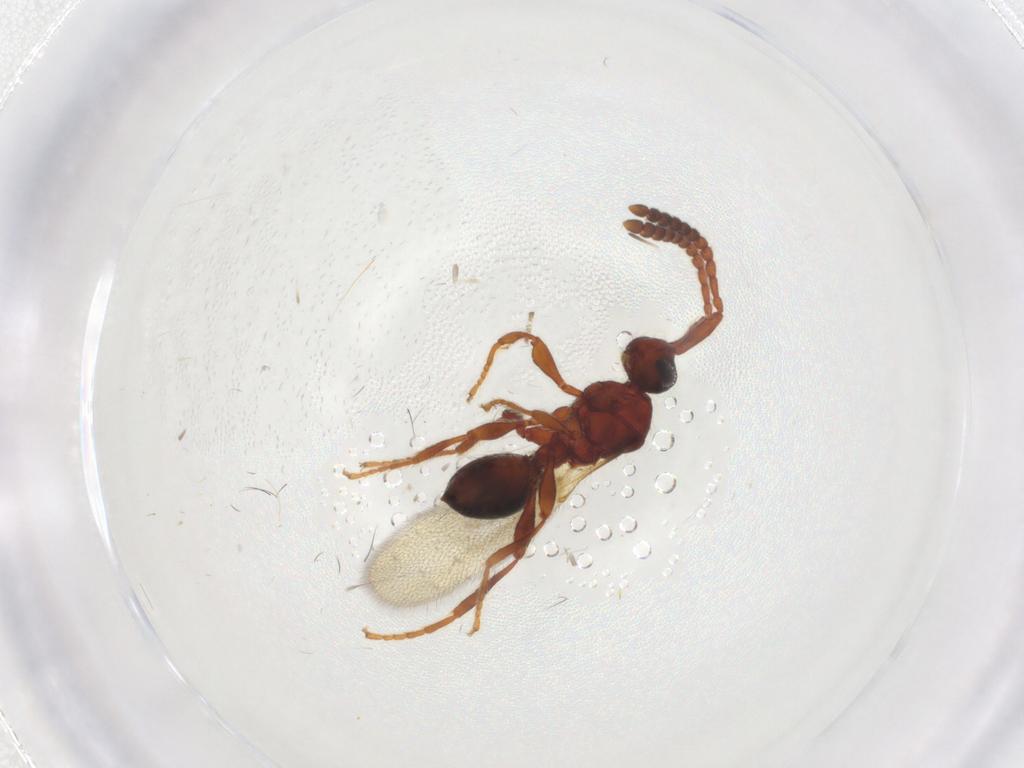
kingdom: Animalia
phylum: Arthropoda
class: Insecta
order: Hymenoptera
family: Diapriidae
